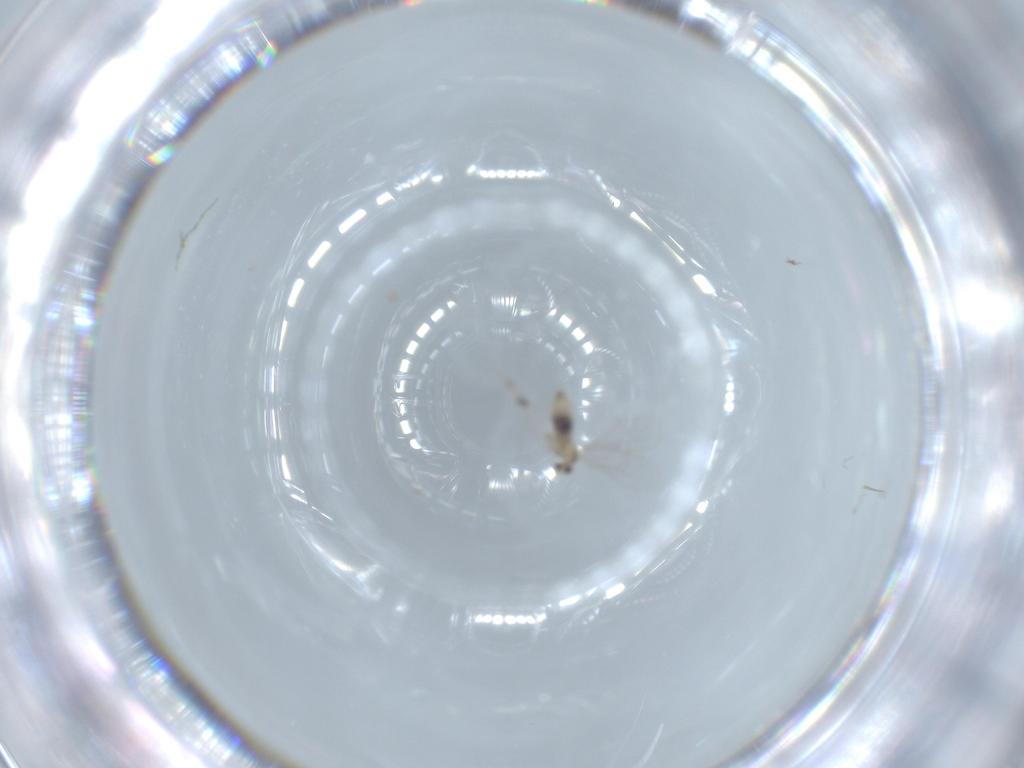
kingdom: Animalia
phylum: Arthropoda
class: Insecta
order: Diptera
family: Cecidomyiidae
